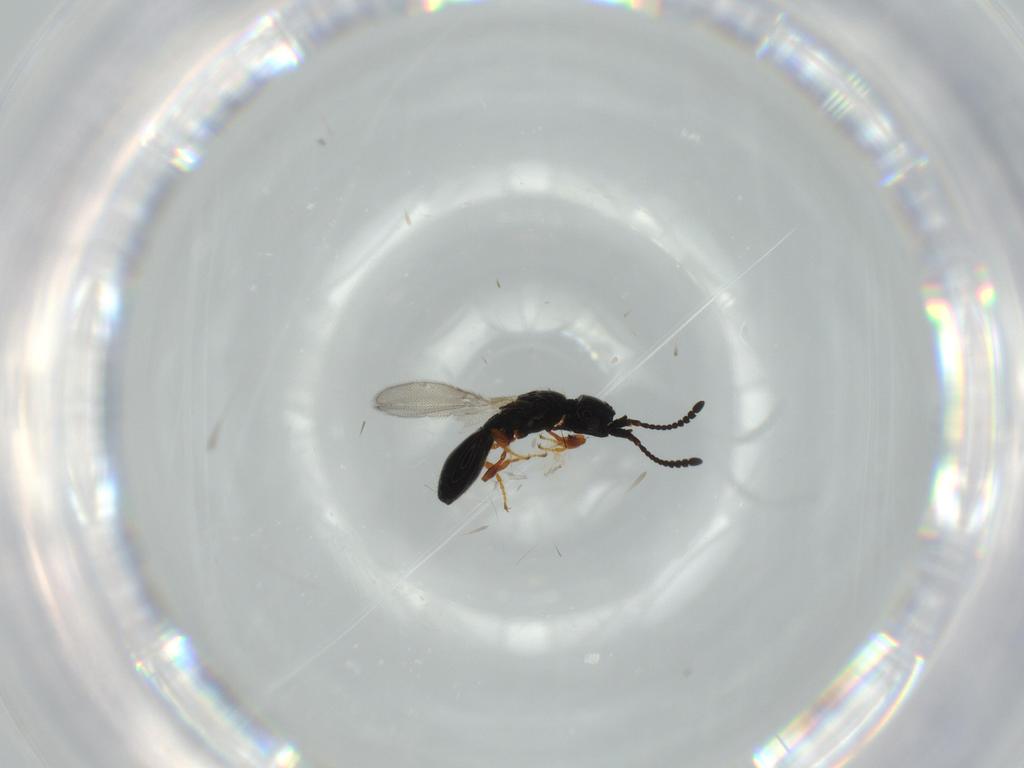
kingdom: Animalia
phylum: Arthropoda
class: Insecta
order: Hymenoptera
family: Diapriidae
